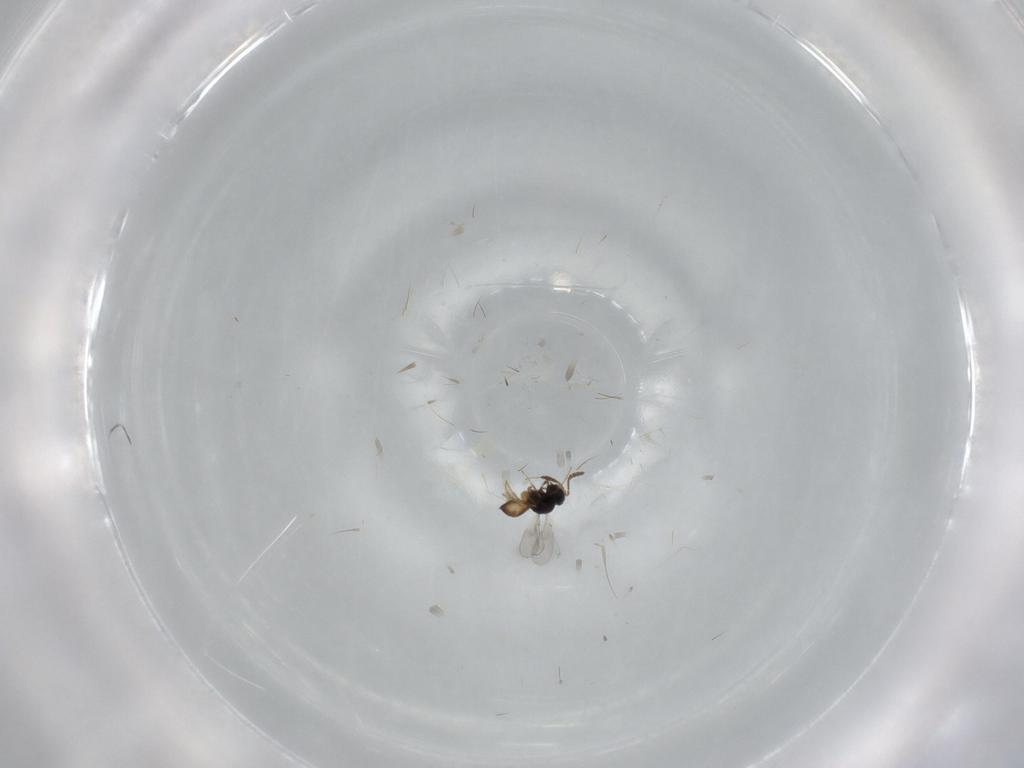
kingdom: Animalia
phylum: Arthropoda
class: Insecta
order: Hymenoptera
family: Scelionidae
